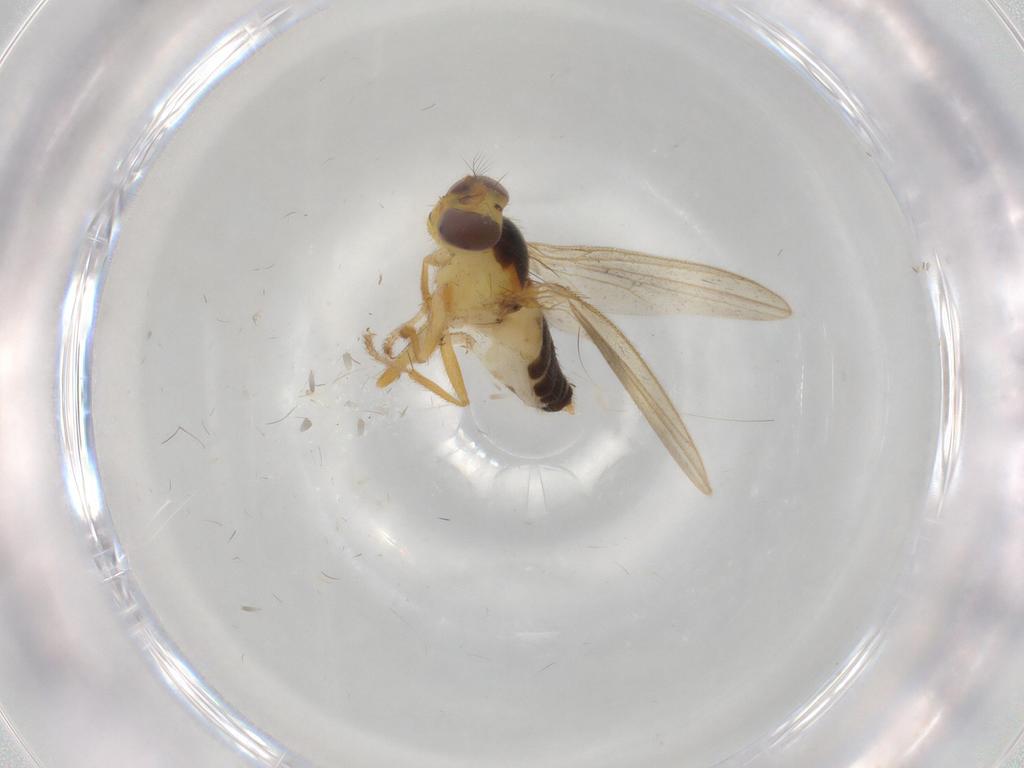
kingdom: Animalia
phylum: Arthropoda
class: Insecta
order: Diptera
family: Periscelididae
